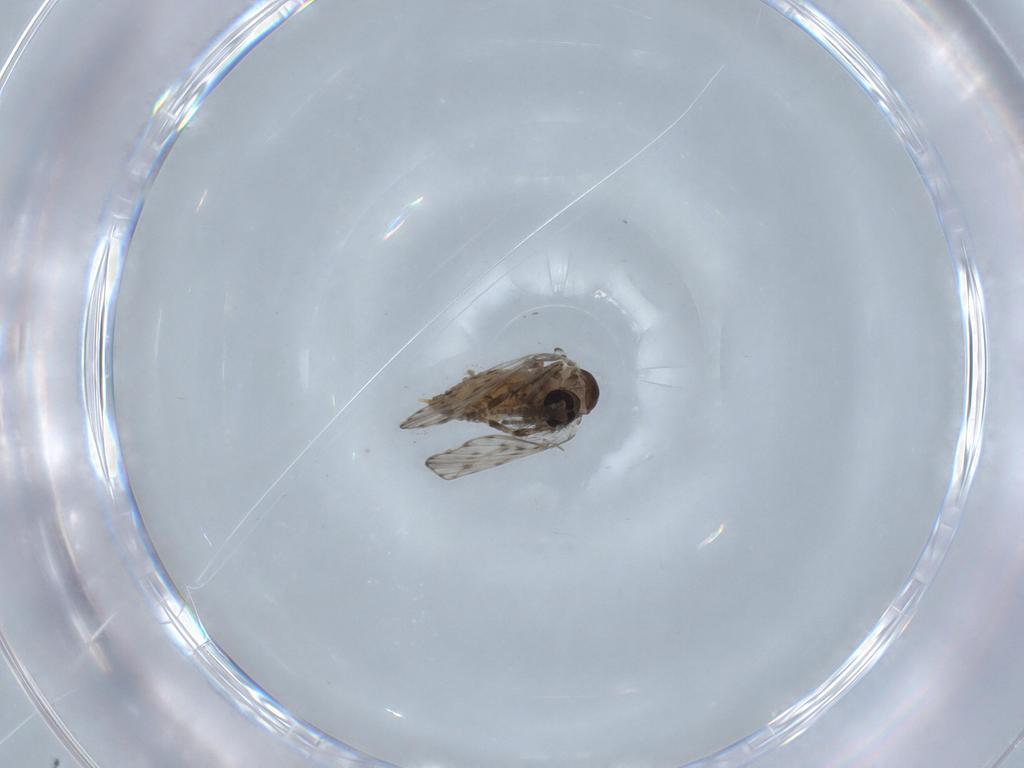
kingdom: Animalia
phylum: Arthropoda
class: Insecta
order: Diptera
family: Psychodidae
